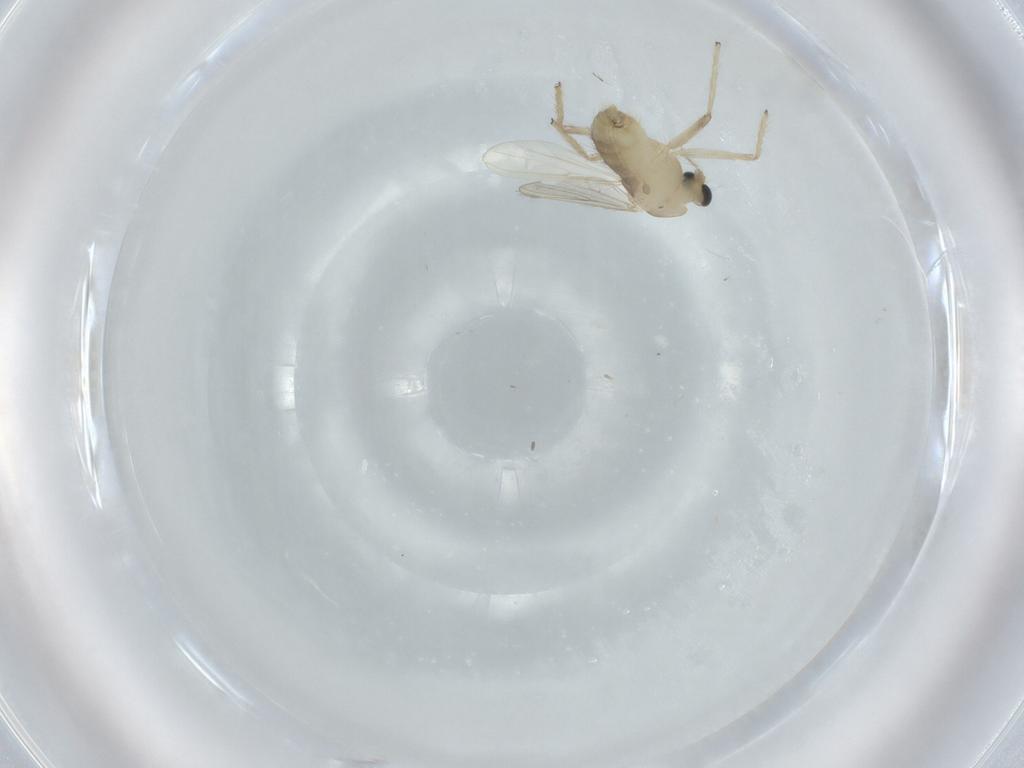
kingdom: Animalia
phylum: Arthropoda
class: Insecta
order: Diptera
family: Chironomidae
